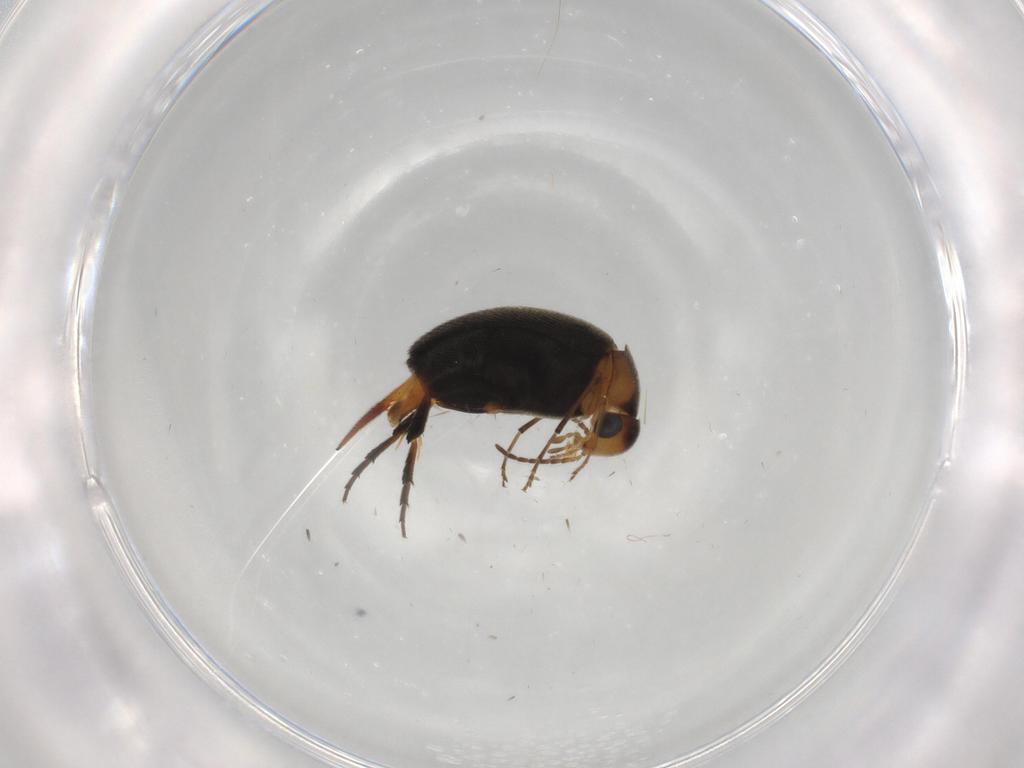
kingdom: Animalia
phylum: Arthropoda
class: Insecta
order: Coleoptera
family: Mordellidae
